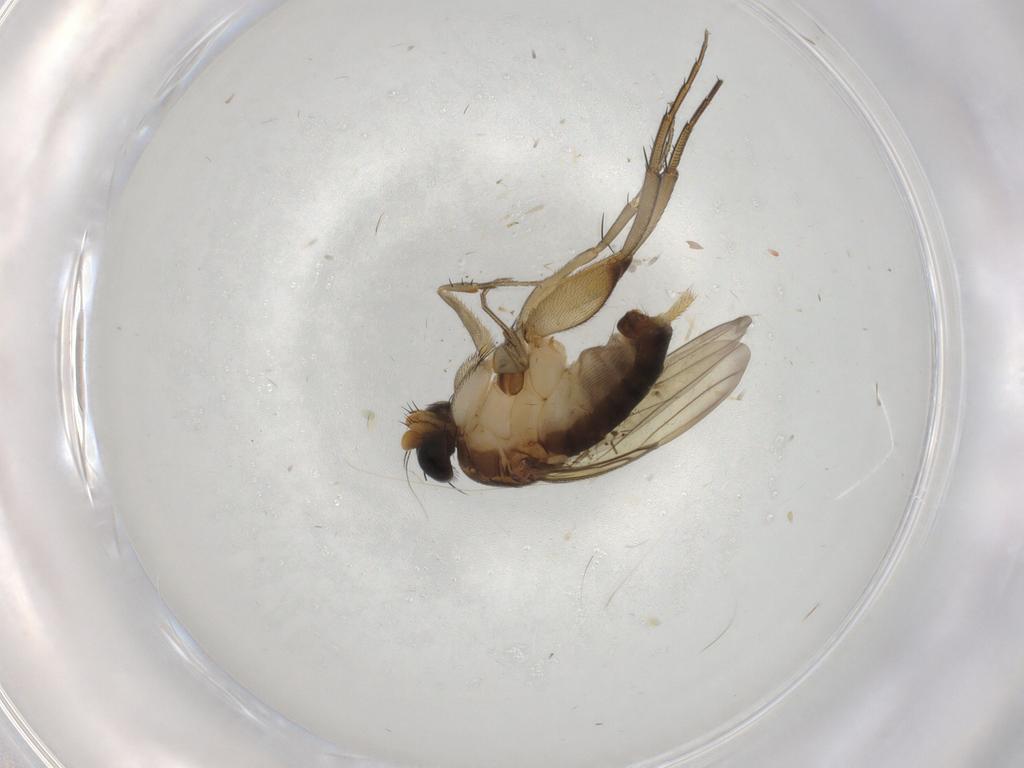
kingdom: Animalia
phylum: Arthropoda
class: Insecta
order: Diptera
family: Phoridae
